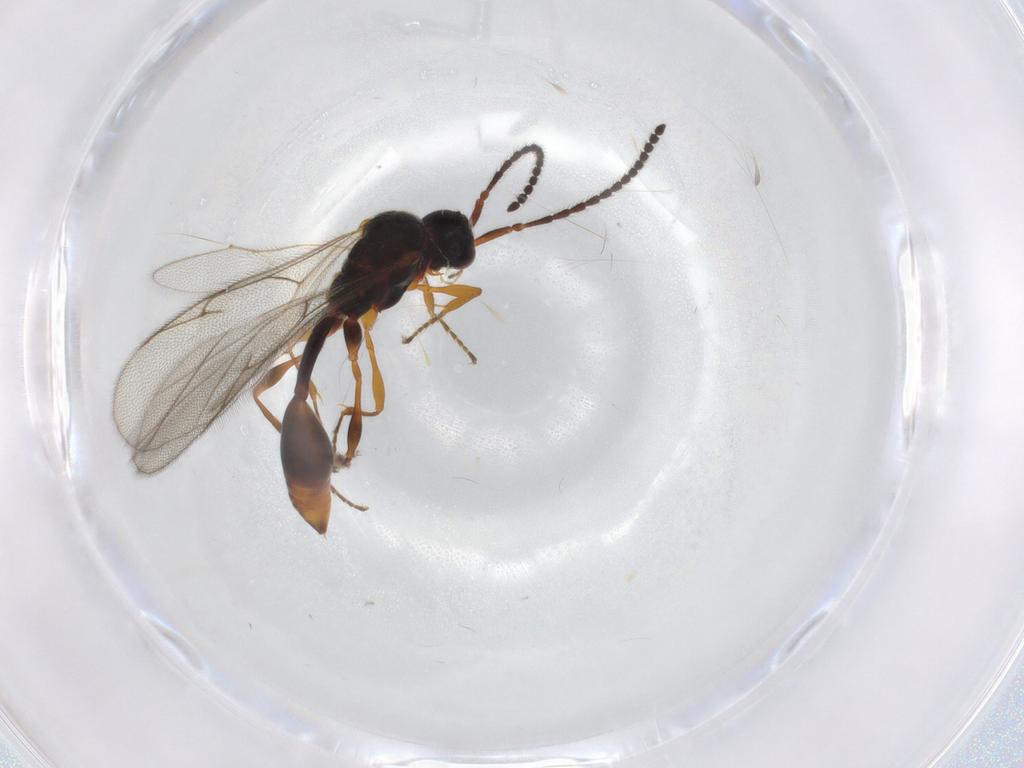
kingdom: Animalia
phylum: Arthropoda
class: Insecta
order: Hymenoptera
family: Diapriidae
